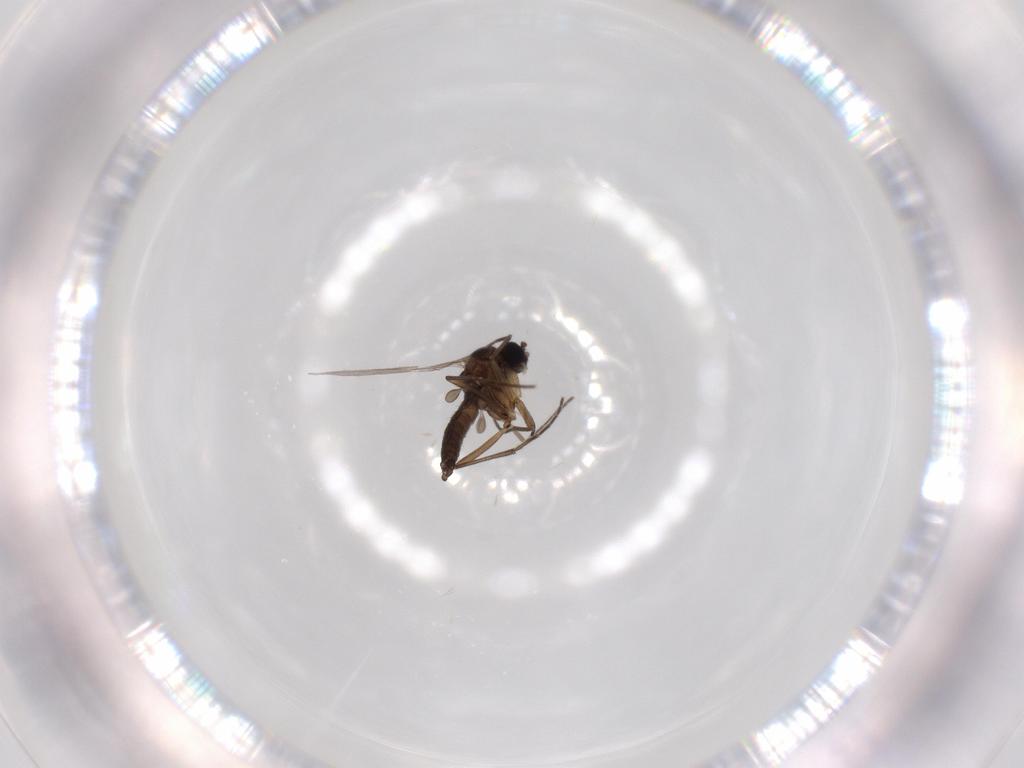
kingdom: Animalia
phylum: Arthropoda
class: Insecta
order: Diptera
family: Sciaridae
